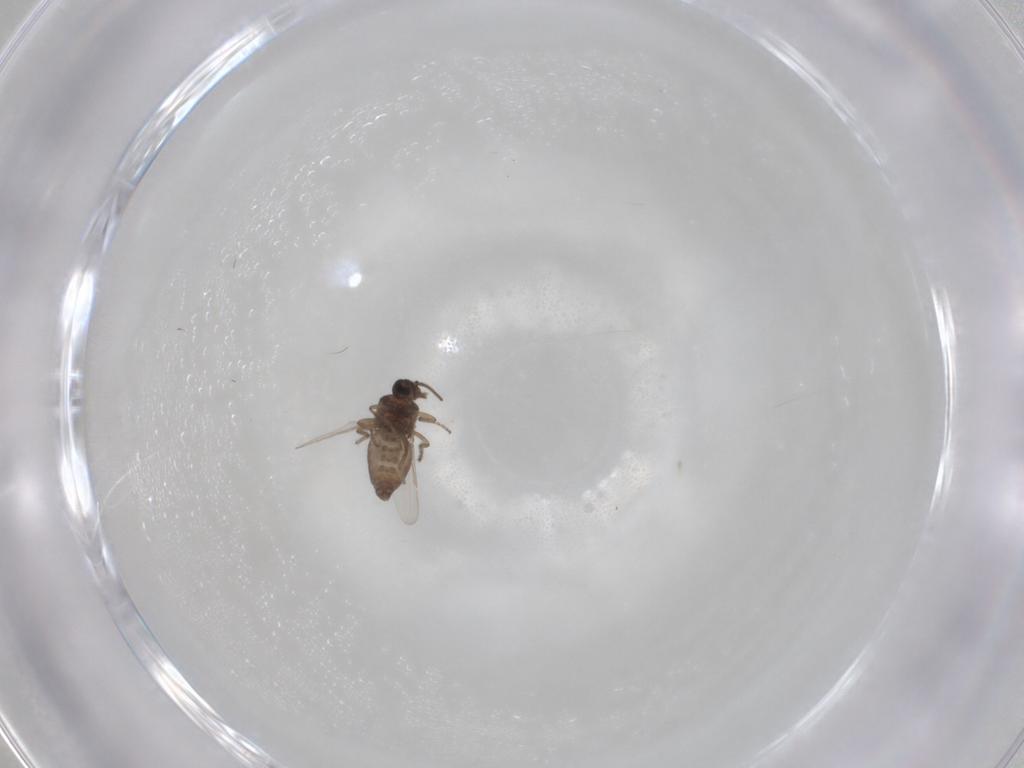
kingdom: Animalia
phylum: Arthropoda
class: Insecta
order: Diptera
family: Ceratopogonidae
